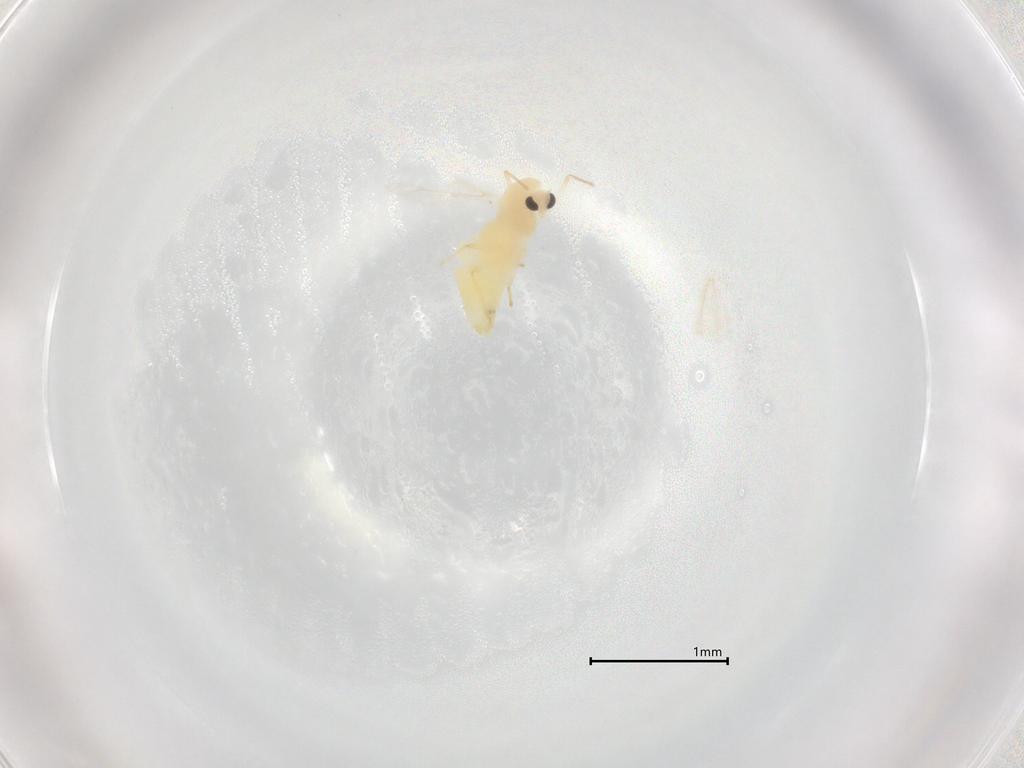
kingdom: Animalia
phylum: Arthropoda
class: Insecta
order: Diptera
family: Chironomidae
